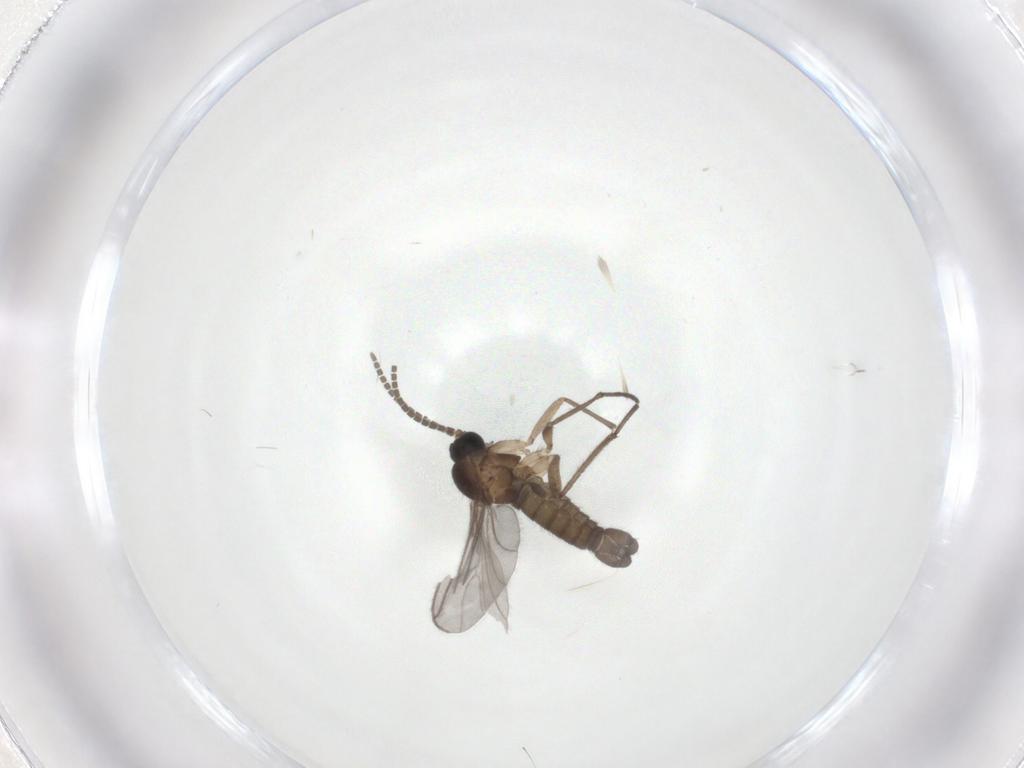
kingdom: Animalia
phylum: Arthropoda
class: Insecta
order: Diptera
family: Sciaridae
